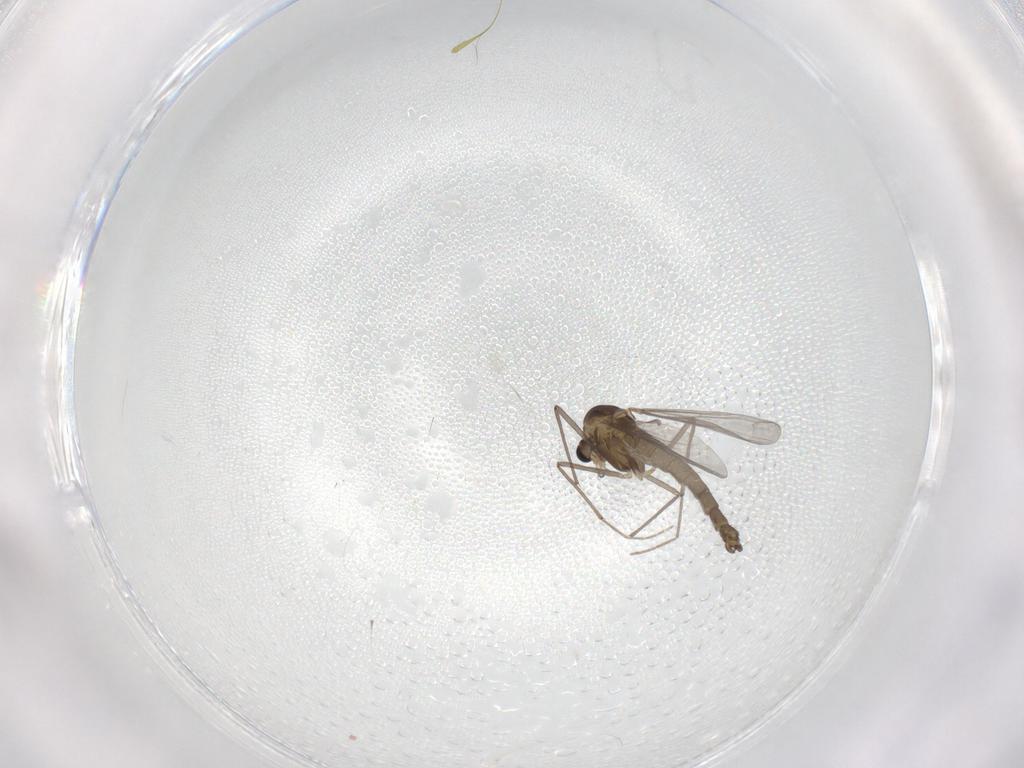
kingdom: Animalia
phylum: Arthropoda
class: Insecta
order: Diptera
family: Chironomidae
